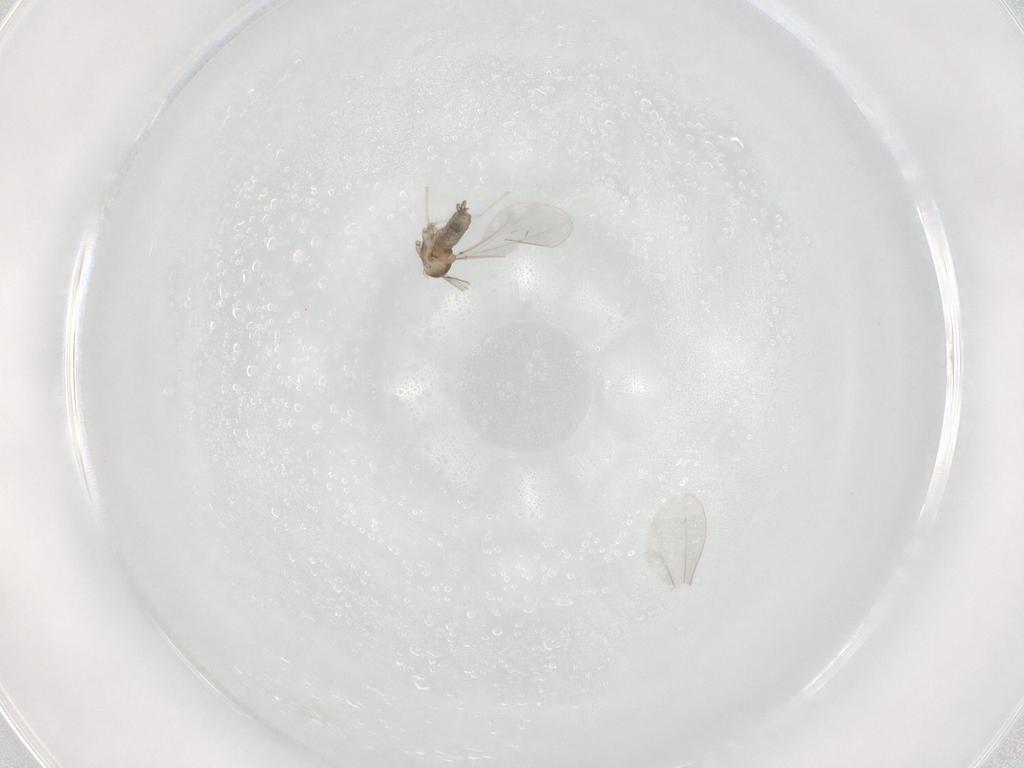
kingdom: Animalia
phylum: Arthropoda
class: Insecta
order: Diptera
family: Cecidomyiidae
